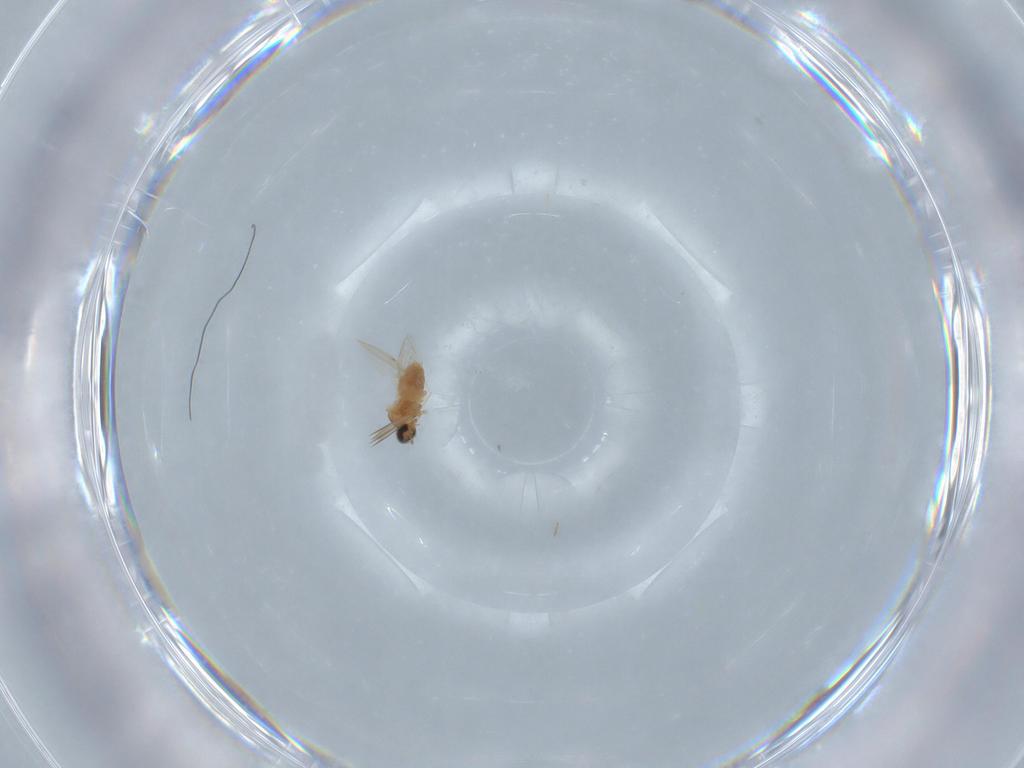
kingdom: Animalia
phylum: Arthropoda
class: Insecta
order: Diptera
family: Cecidomyiidae
